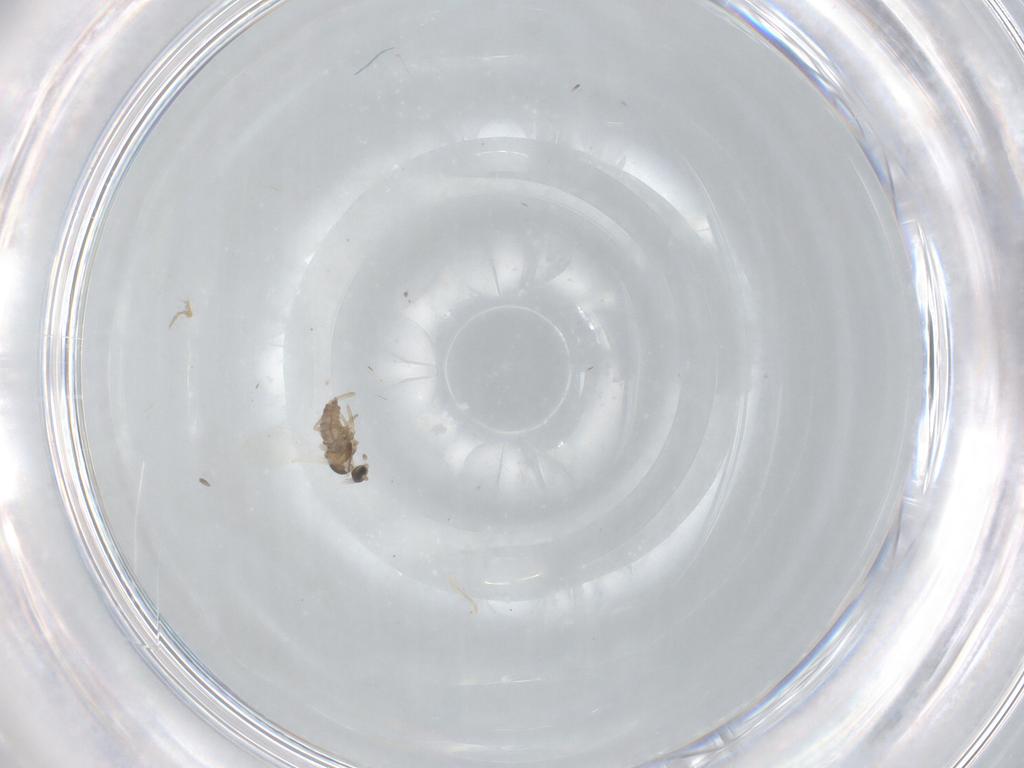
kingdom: Animalia
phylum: Arthropoda
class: Insecta
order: Diptera
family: Cecidomyiidae
